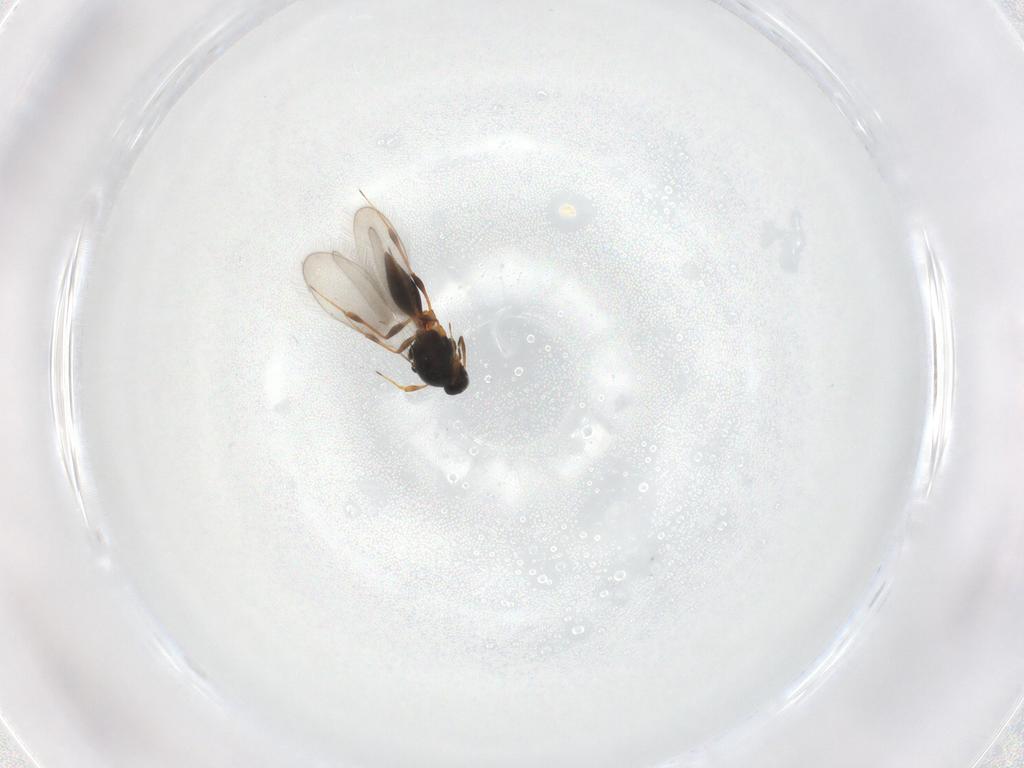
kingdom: Animalia
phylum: Arthropoda
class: Insecta
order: Hymenoptera
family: Platygastridae
